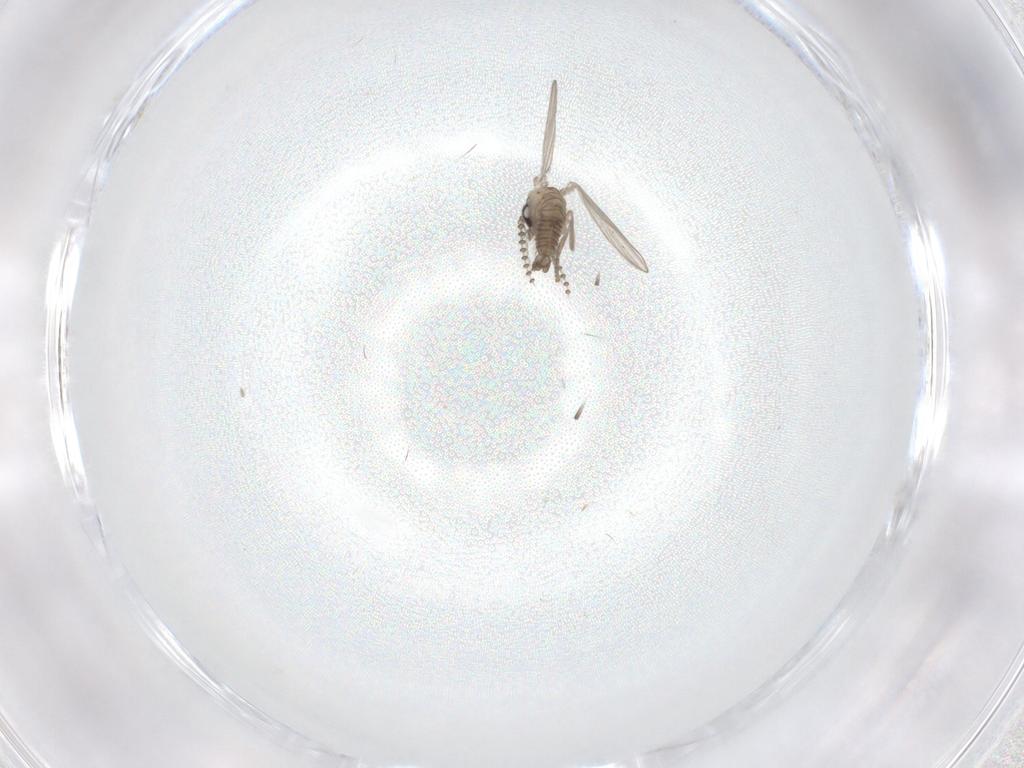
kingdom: Animalia
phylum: Arthropoda
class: Insecta
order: Diptera
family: Psychodidae
